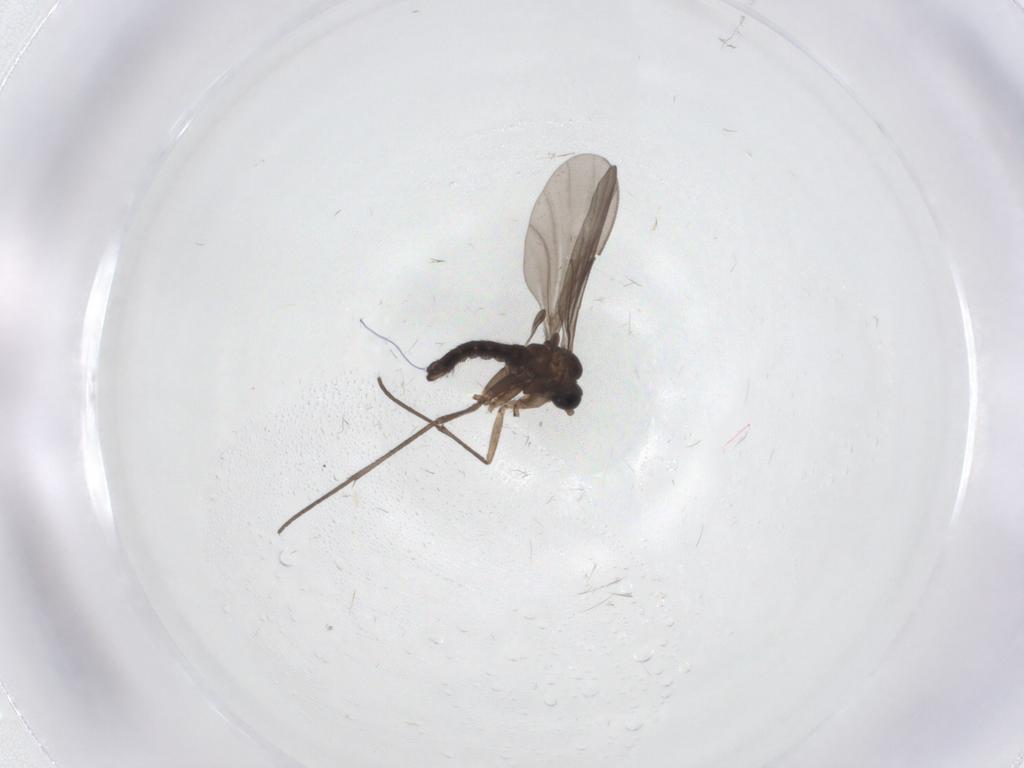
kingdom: Animalia
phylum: Arthropoda
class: Insecta
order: Diptera
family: Sciaridae
